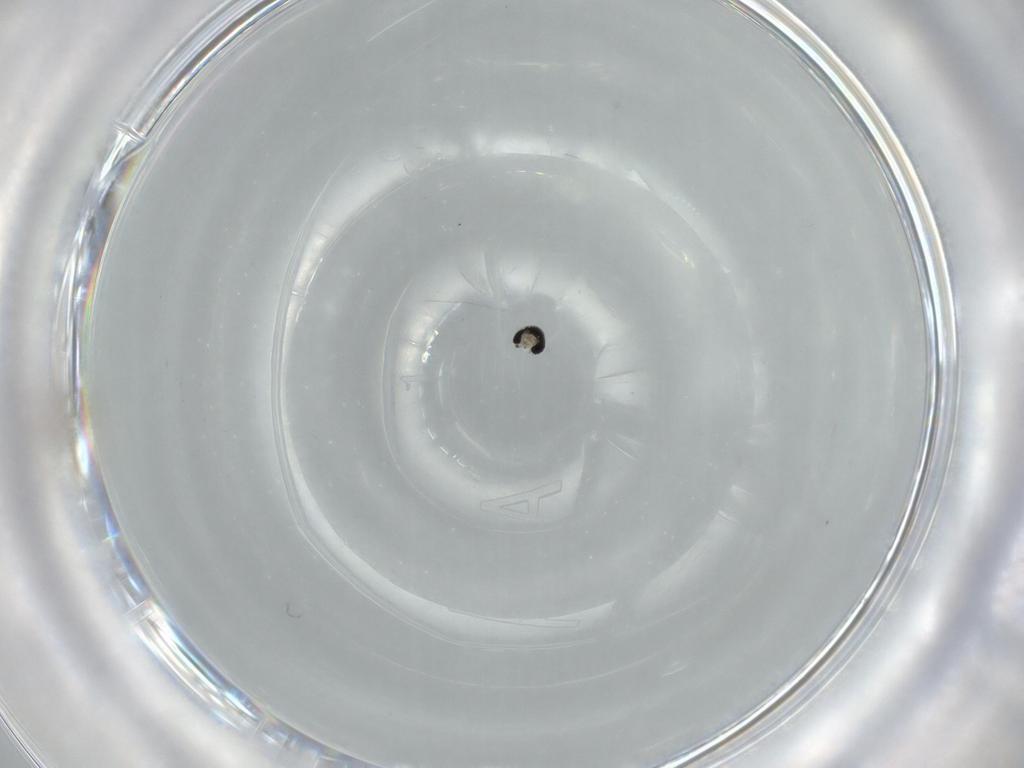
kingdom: Animalia
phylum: Arthropoda
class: Insecta
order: Diptera
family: Cecidomyiidae
